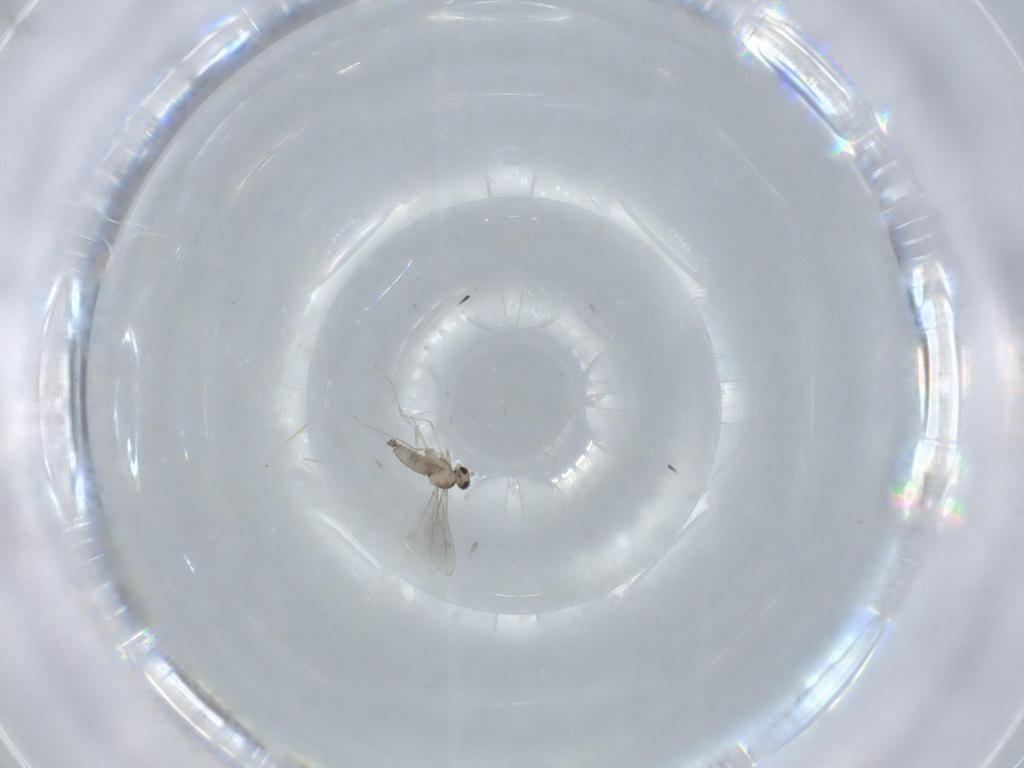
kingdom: Animalia
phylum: Arthropoda
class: Insecta
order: Diptera
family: Cecidomyiidae
